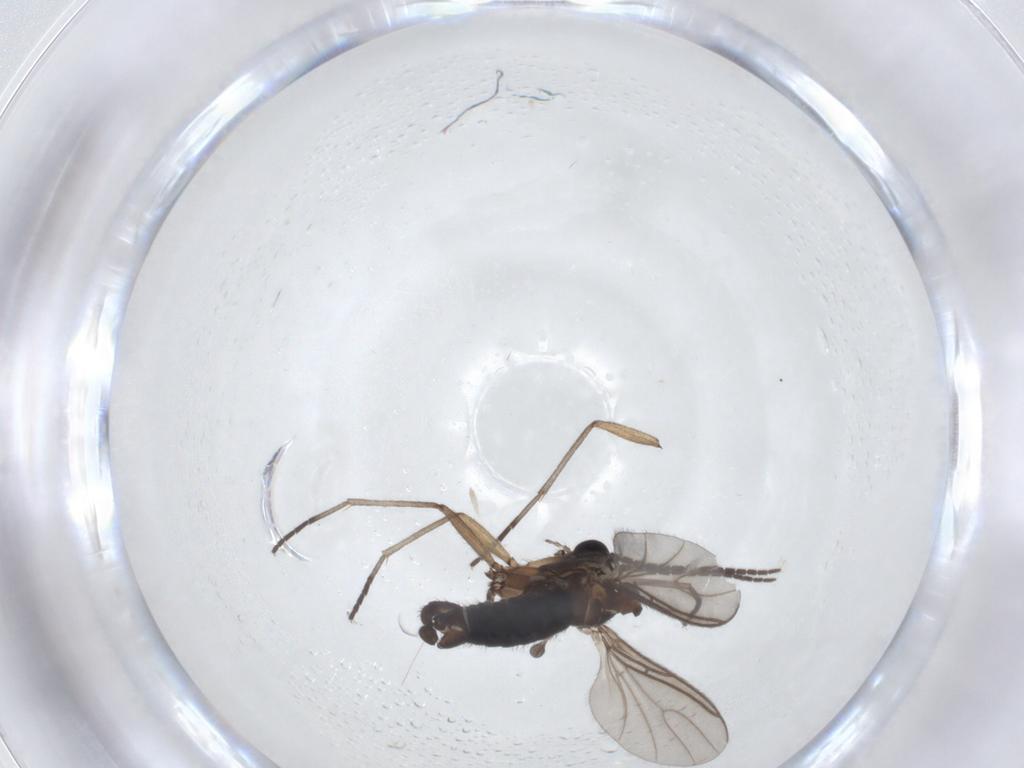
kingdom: Animalia
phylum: Arthropoda
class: Insecta
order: Diptera
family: Sciaridae
